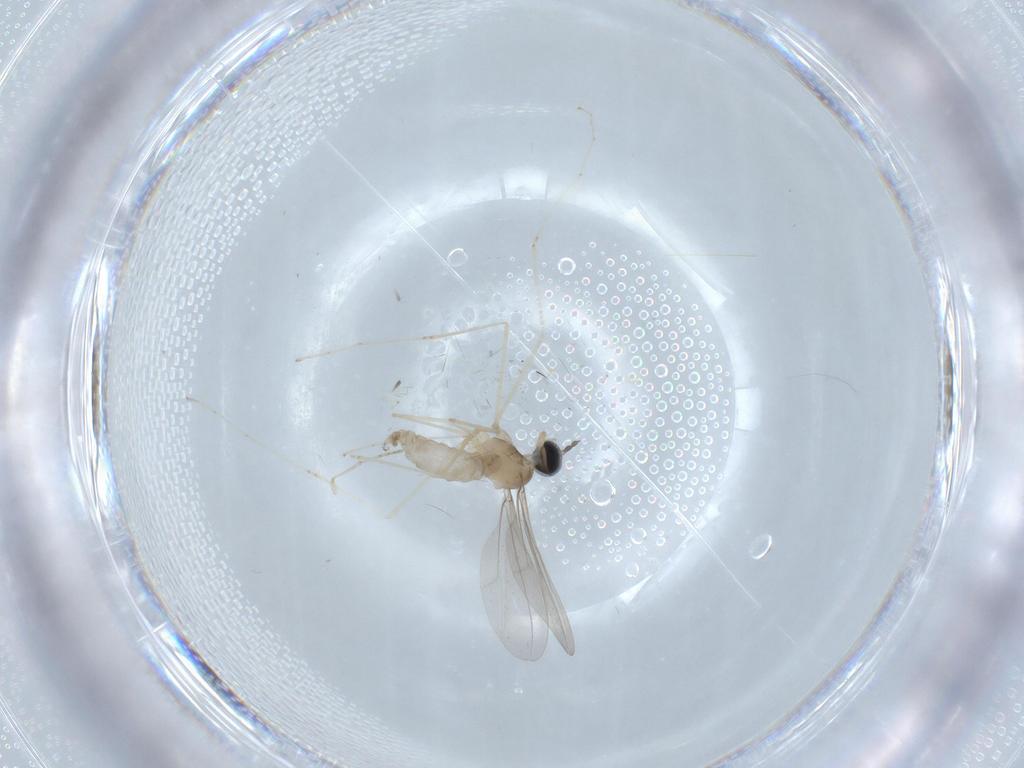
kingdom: Animalia
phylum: Arthropoda
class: Insecta
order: Diptera
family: Cecidomyiidae
